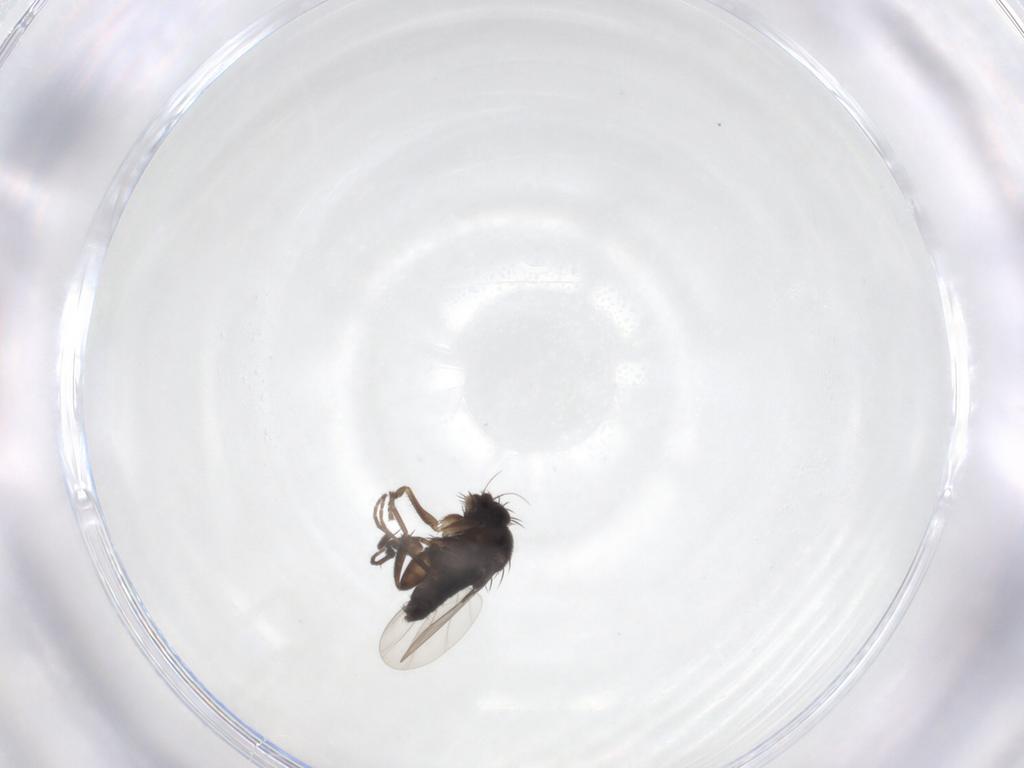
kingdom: Animalia
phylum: Arthropoda
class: Insecta
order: Diptera
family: Phoridae
